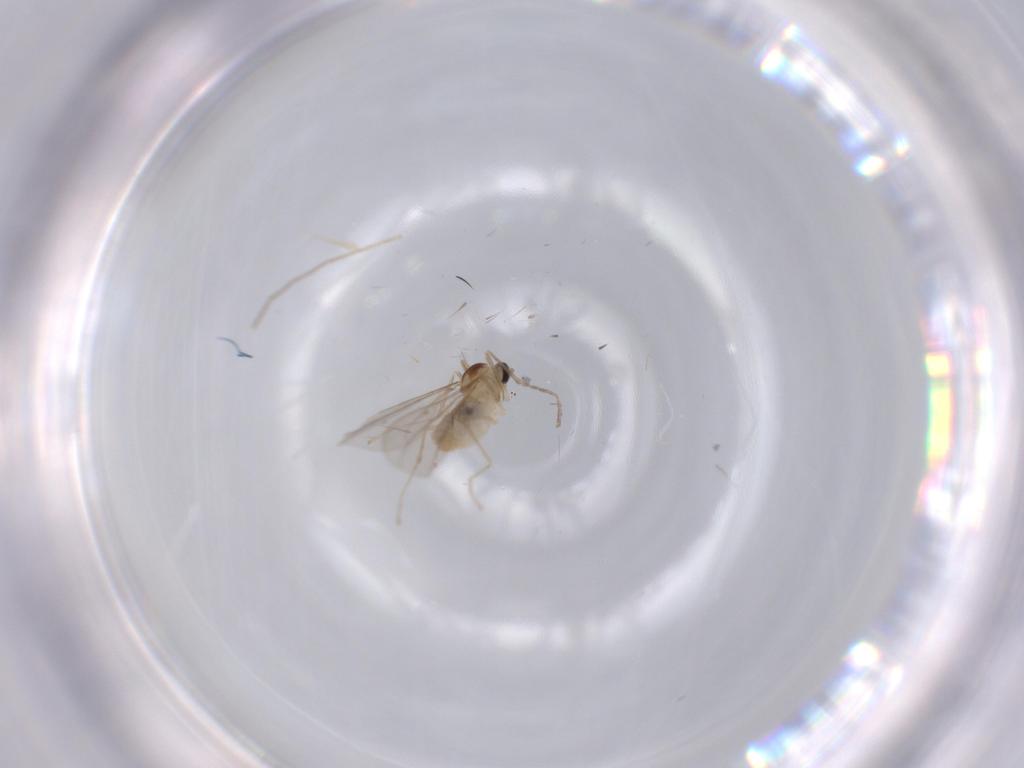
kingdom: Animalia
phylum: Arthropoda
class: Insecta
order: Diptera
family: Cecidomyiidae
